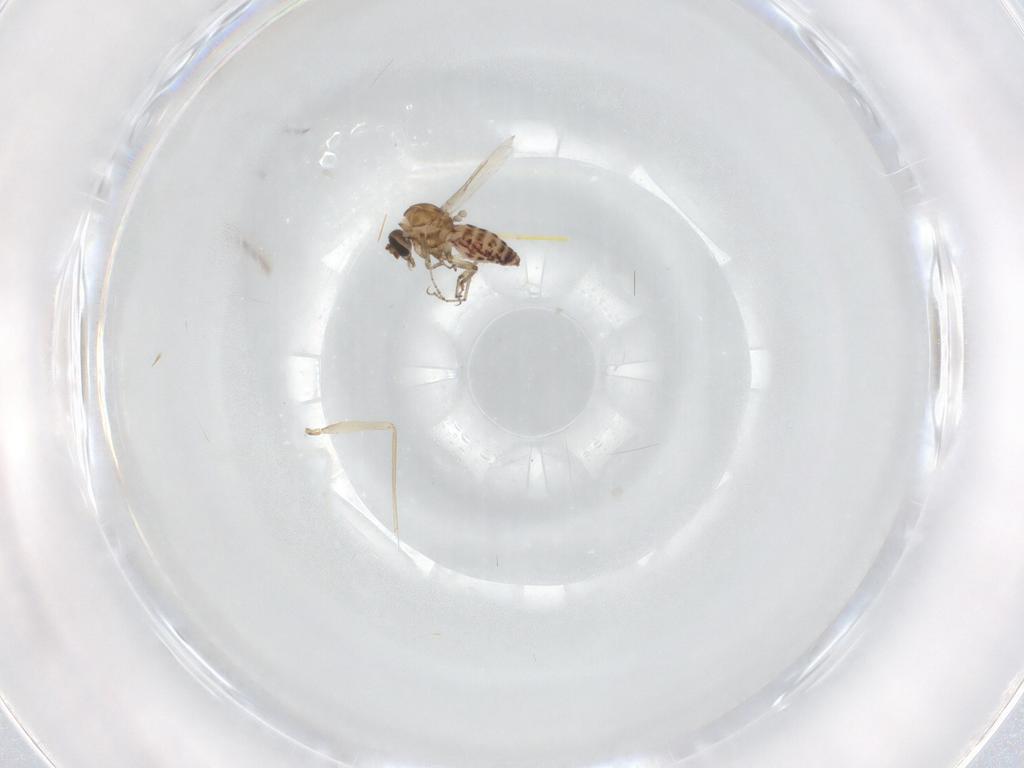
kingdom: Animalia
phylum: Arthropoda
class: Insecta
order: Diptera
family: Ceratopogonidae
